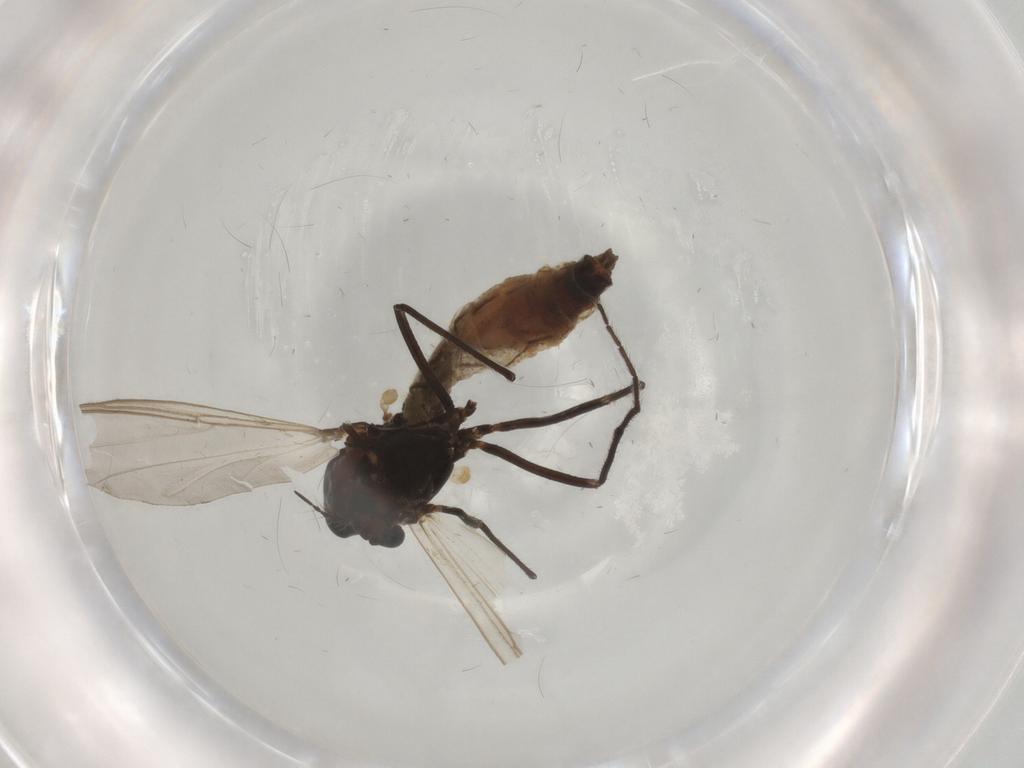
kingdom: Animalia
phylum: Arthropoda
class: Insecta
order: Diptera
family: Chironomidae
